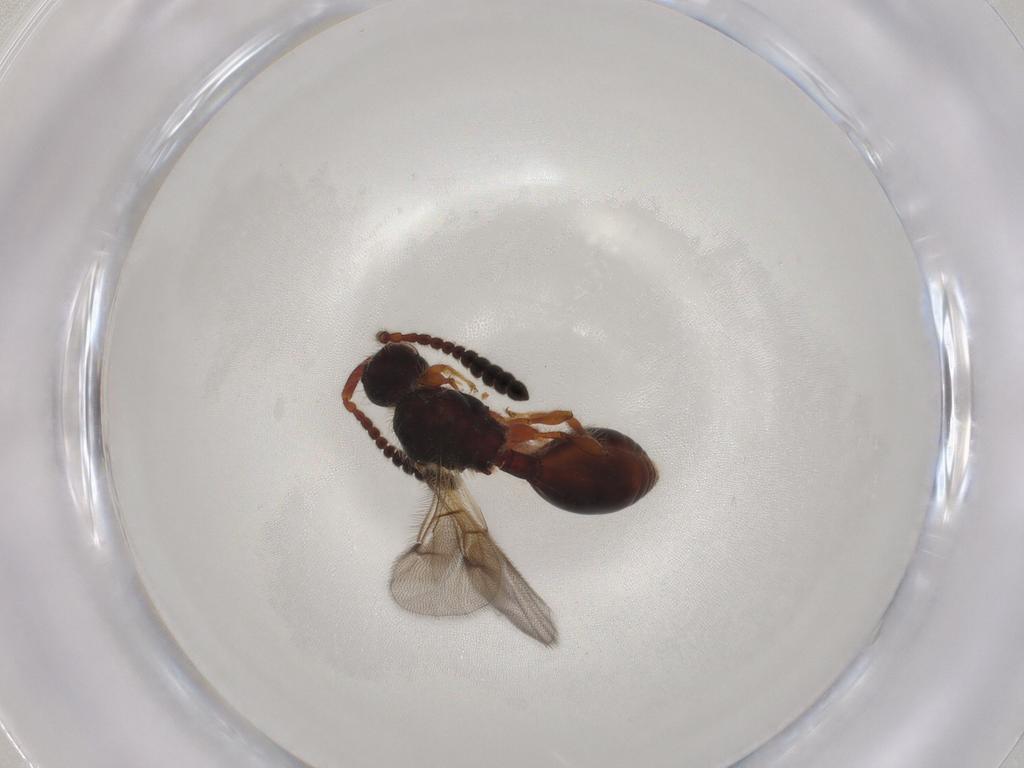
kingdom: Animalia
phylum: Arthropoda
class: Insecta
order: Hymenoptera
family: Diapriidae
